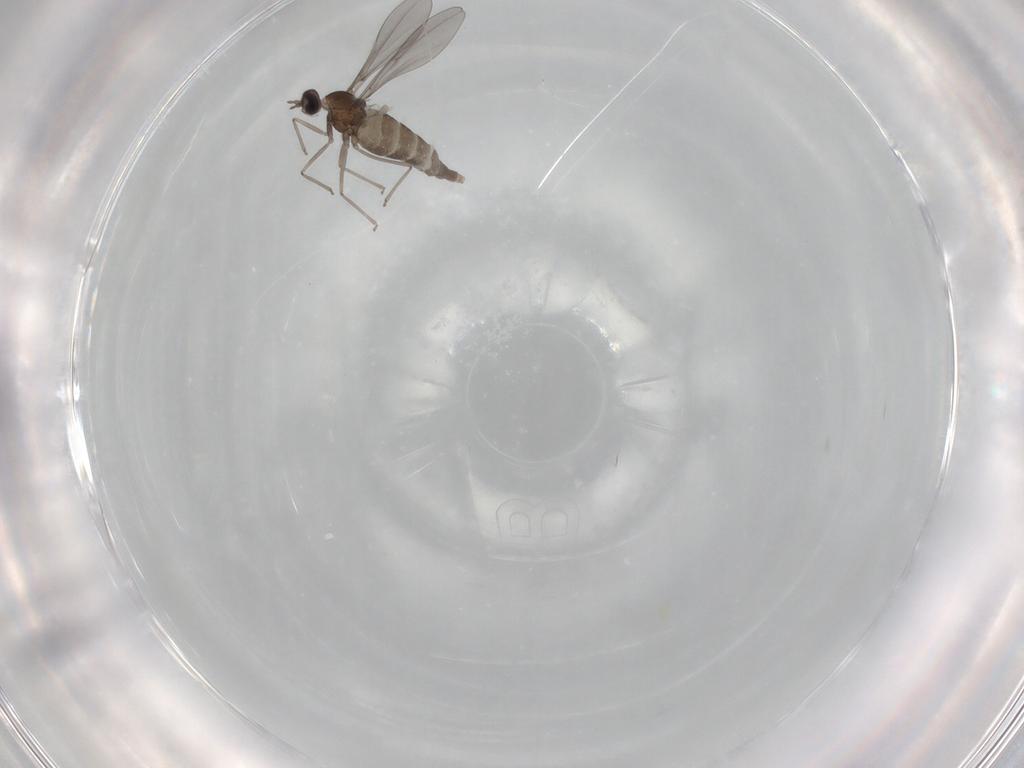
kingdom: Animalia
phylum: Arthropoda
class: Insecta
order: Diptera
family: Cecidomyiidae
